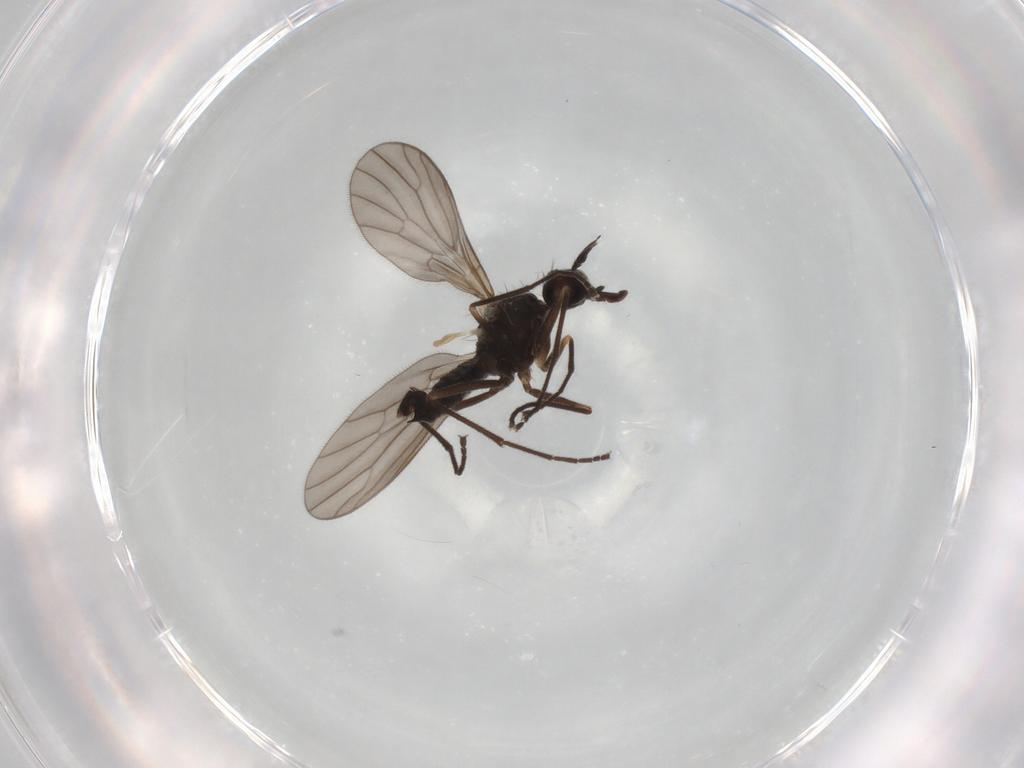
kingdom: Animalia
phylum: Arthropoda
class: Insecta
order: Diptera
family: Empididae
